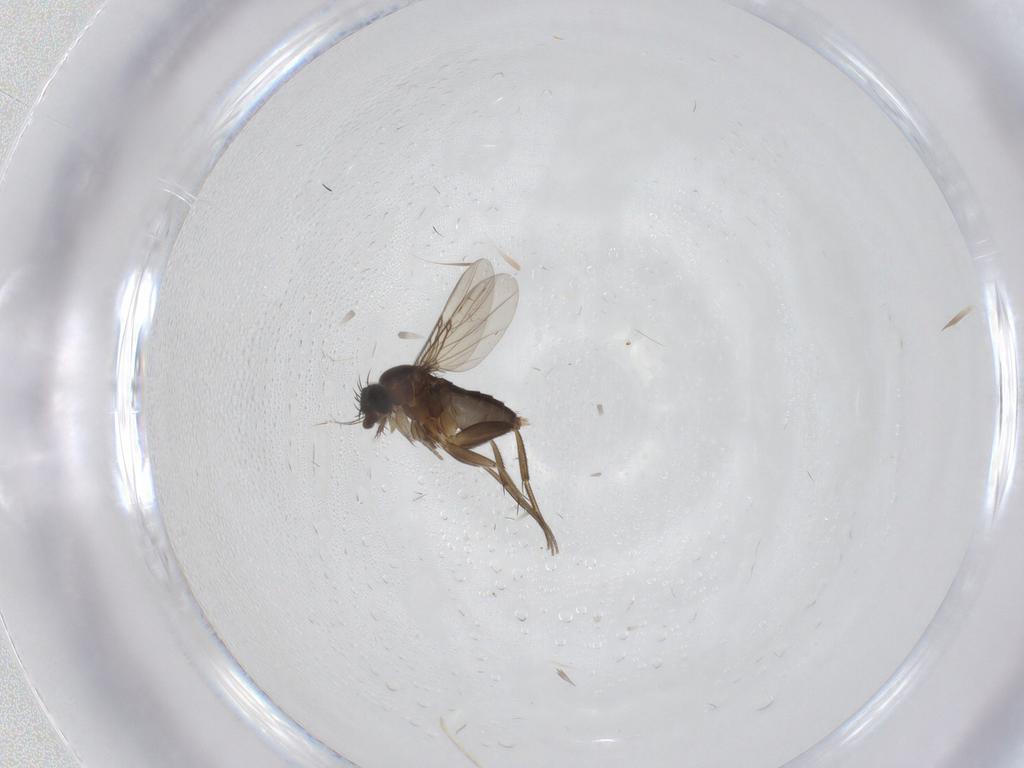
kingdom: Animalia
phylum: Arthropoda
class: Insecta
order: Diptera
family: Phoridae
